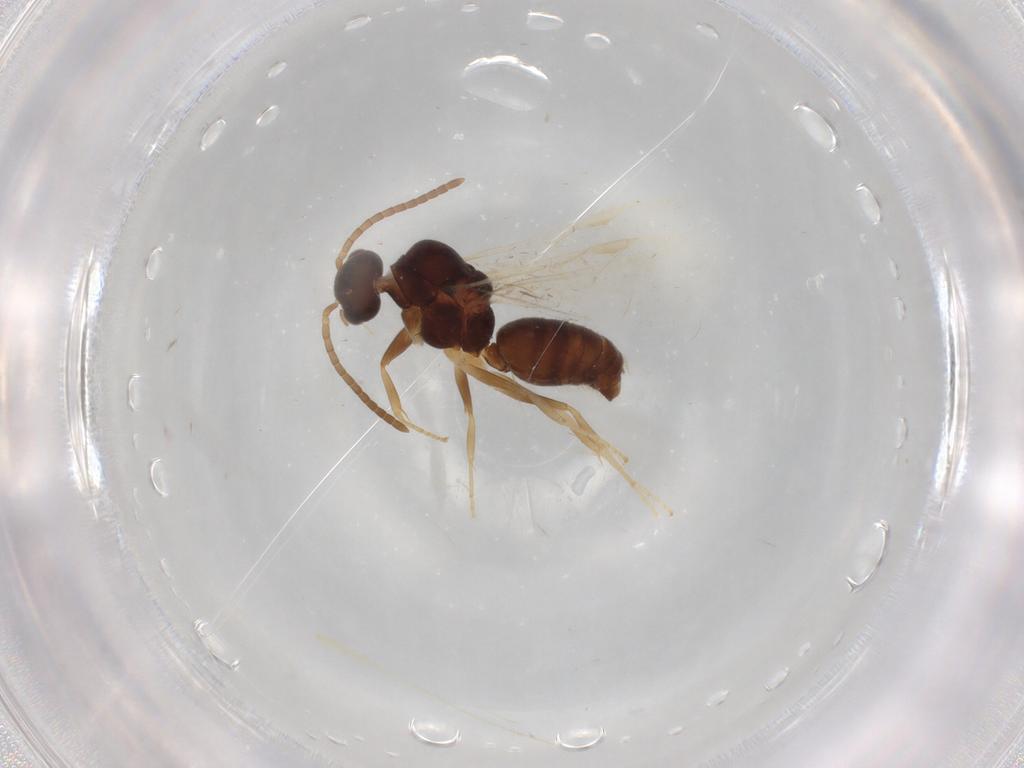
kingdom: Animalia
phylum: Arthropoda
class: Insecta
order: Hymenoptera
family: Formicidae
